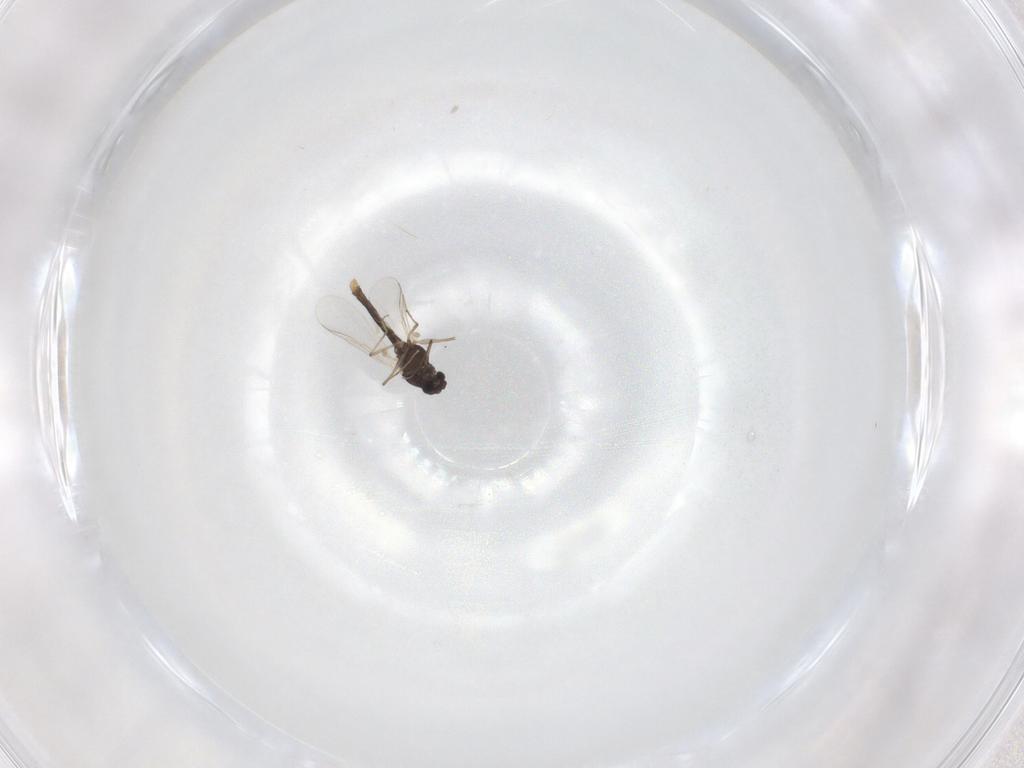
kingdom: Animalia
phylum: Arthropoda
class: Insecta
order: Diptera
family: Chironomidae
